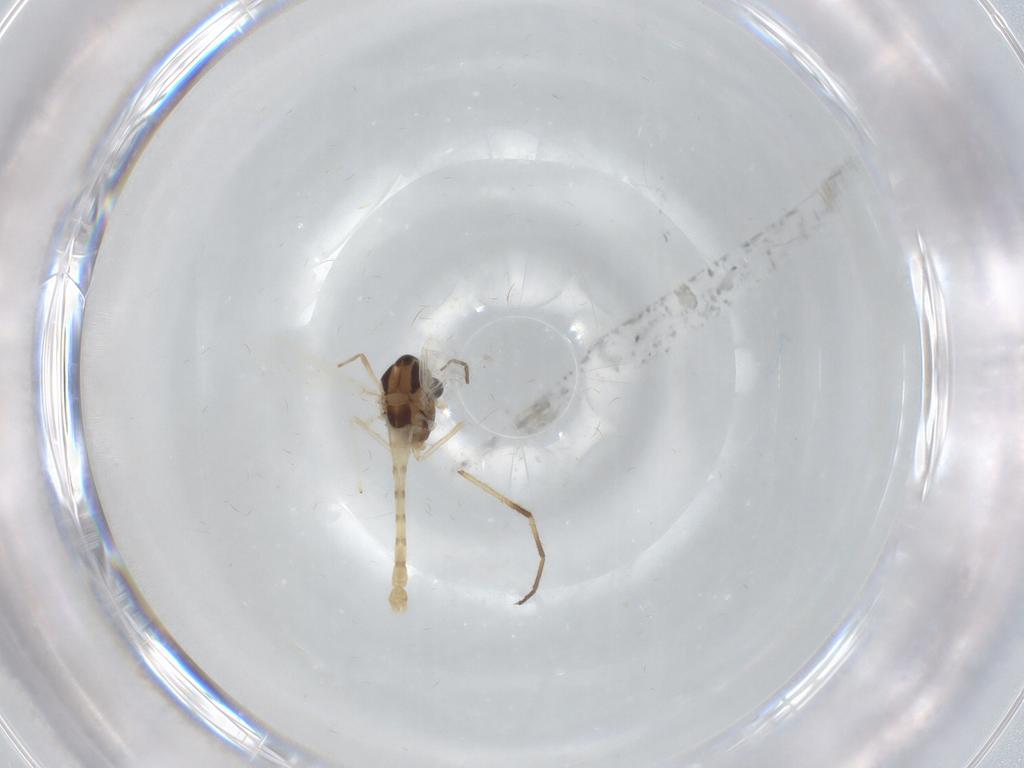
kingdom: Animalia
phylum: Arthropoda
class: Insecta
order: Diptera
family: Chironomidae
